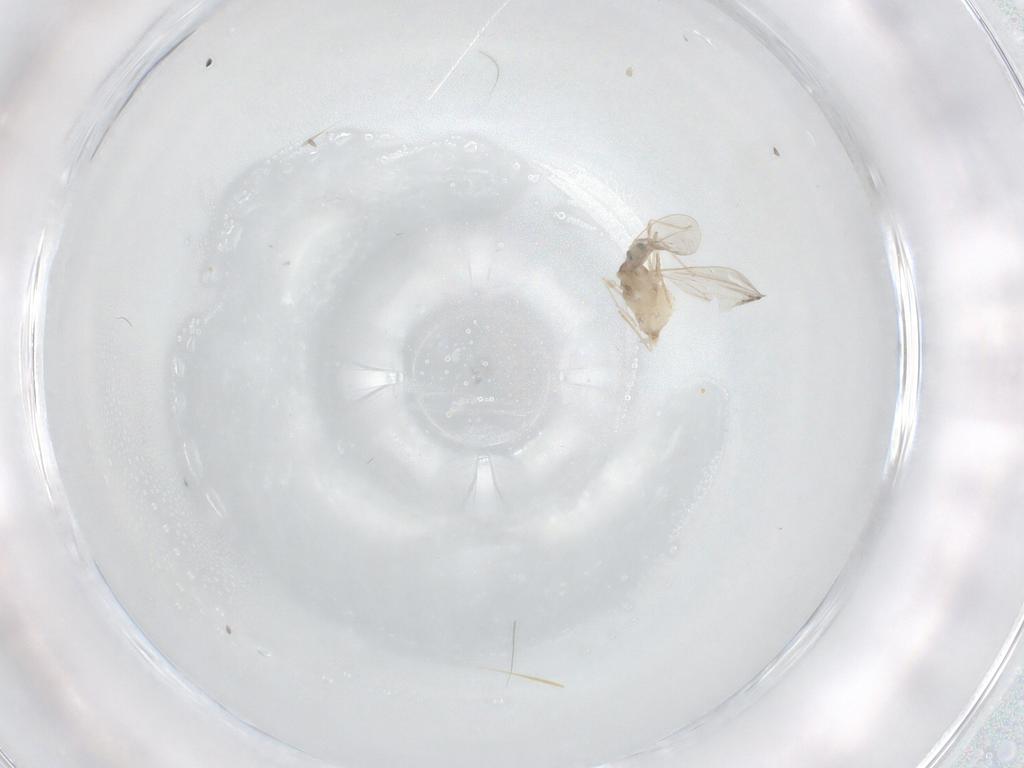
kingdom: Animalia
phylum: Arthropoda
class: Insecta
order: Diptera
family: Cecidomyiidae
